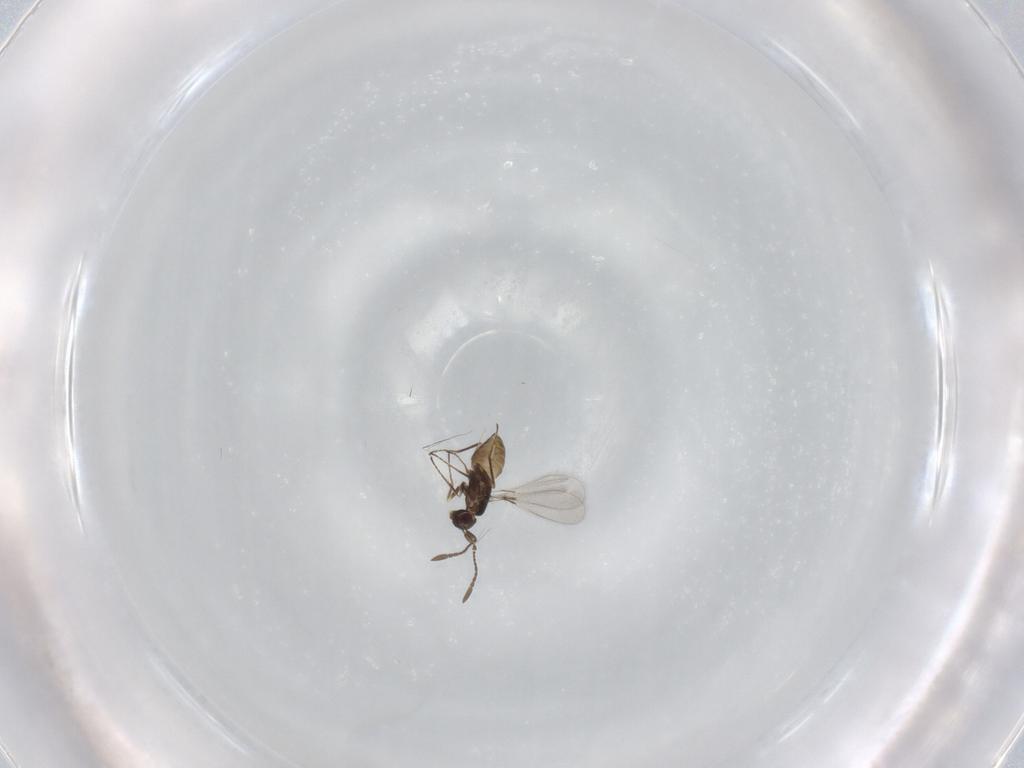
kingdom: Animalia
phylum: Arthropoda
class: Insecta
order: Hymenoptera
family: Mymaridae
